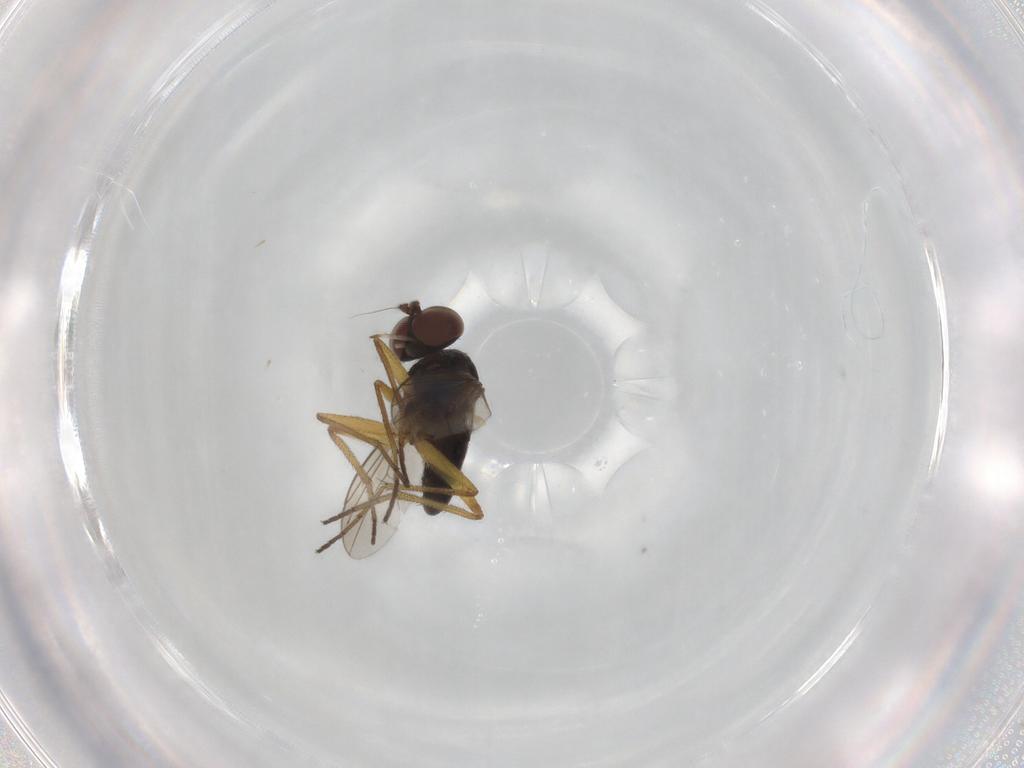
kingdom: Animalia
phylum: Arthropoda
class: Insecta
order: Diptera
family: Dolichopodidae
